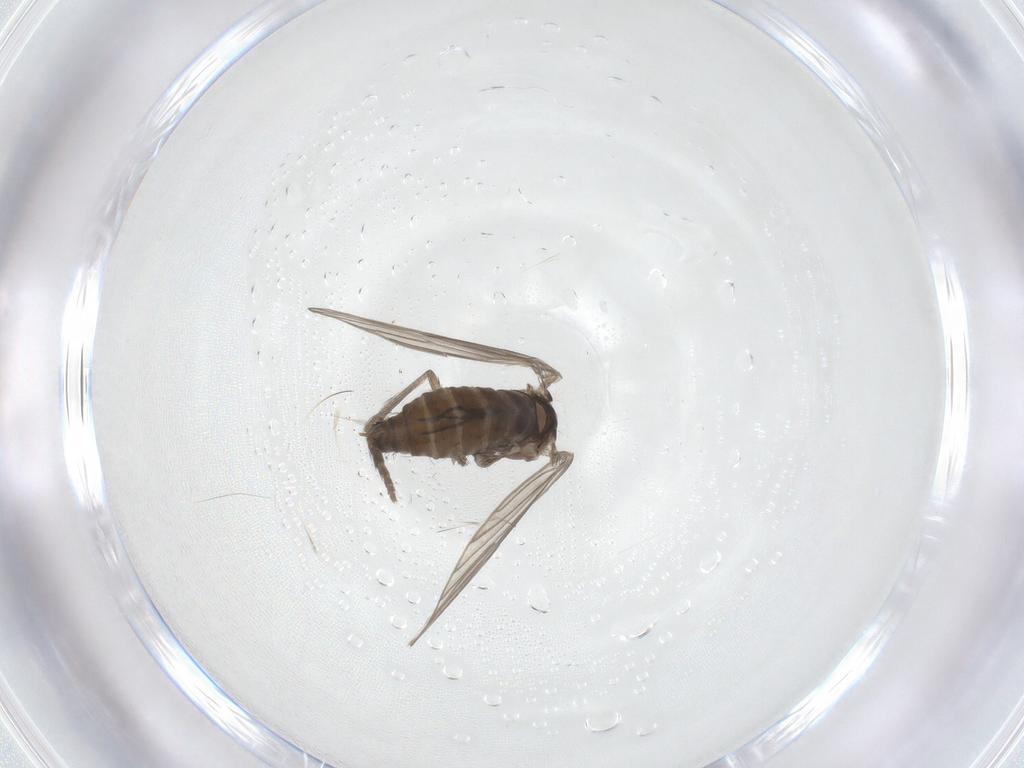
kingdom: Animalia
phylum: Arthropoda
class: Insecta
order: Diptera
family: Psychodidae
